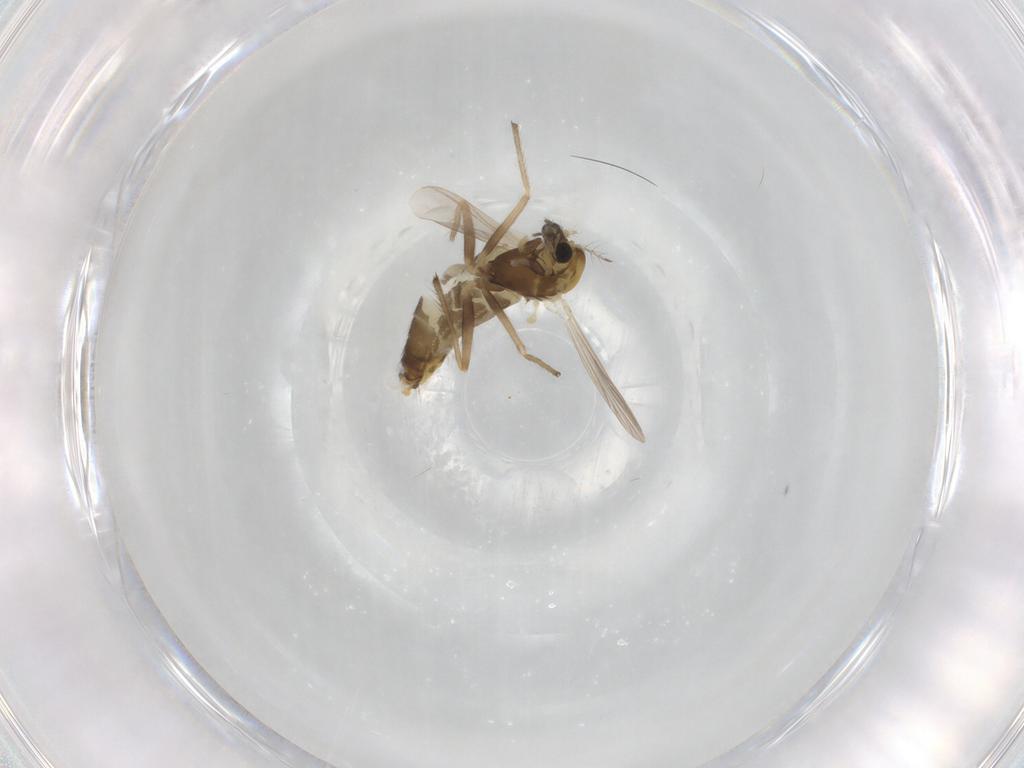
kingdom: Animalia
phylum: Arthropoda
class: Insecta
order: Diptera
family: Chironomidae
